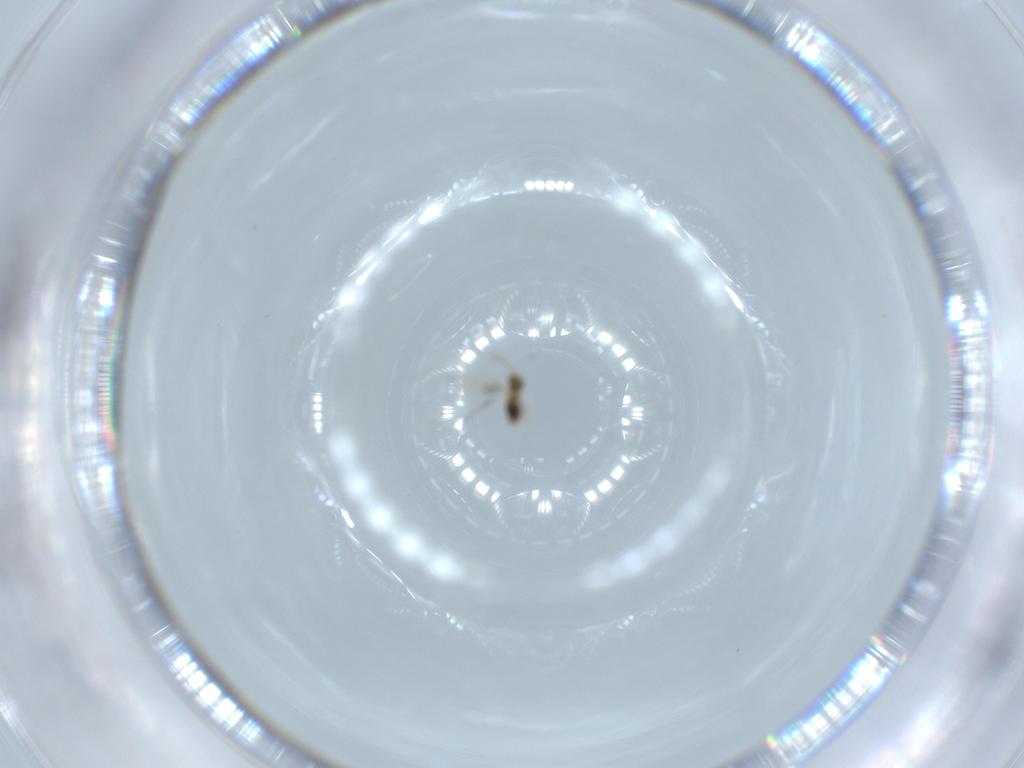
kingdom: Animalia
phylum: Arthropoda
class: Insecta
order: Hymenoptera
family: Aphelinidae
